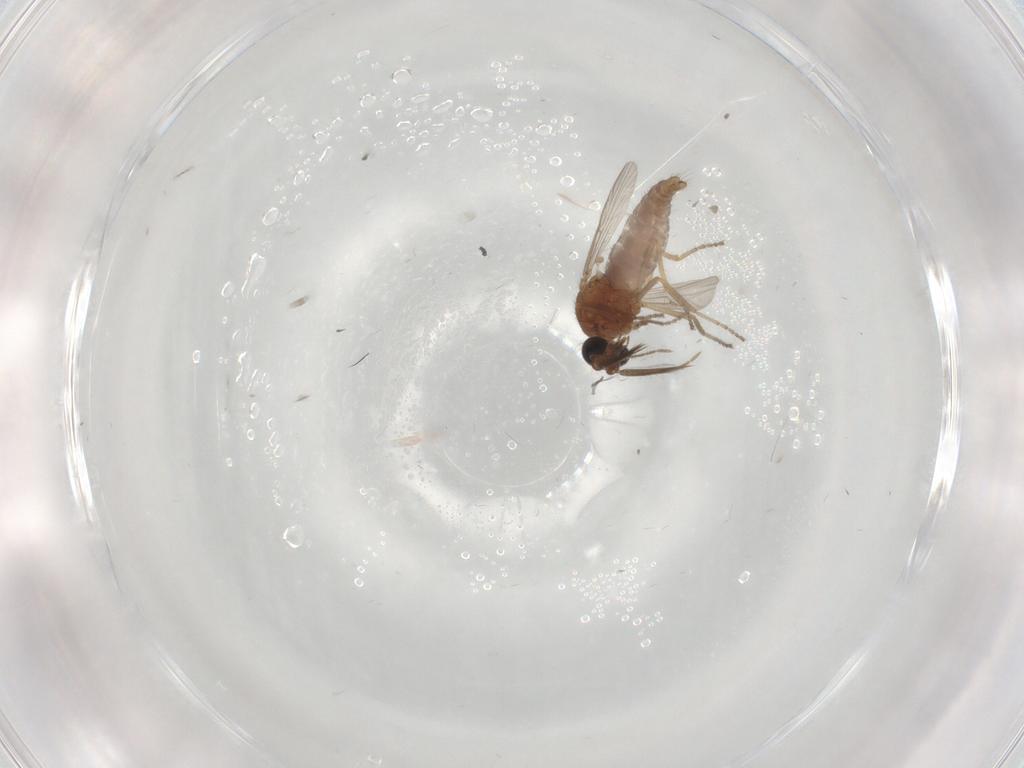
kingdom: Animalia
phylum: Arthropoda
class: Insecta
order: Diptera
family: Ceratopogonidae
